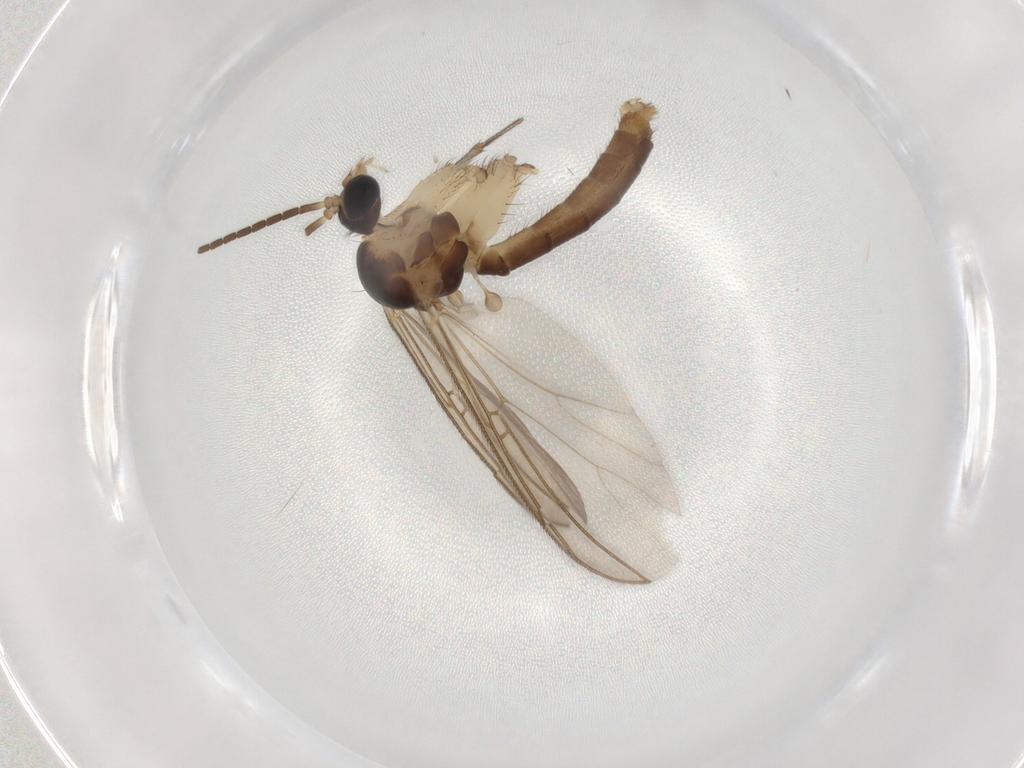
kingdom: Animalia
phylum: Arthropoda
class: Insecta
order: Diptera
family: Mycetophilidae
